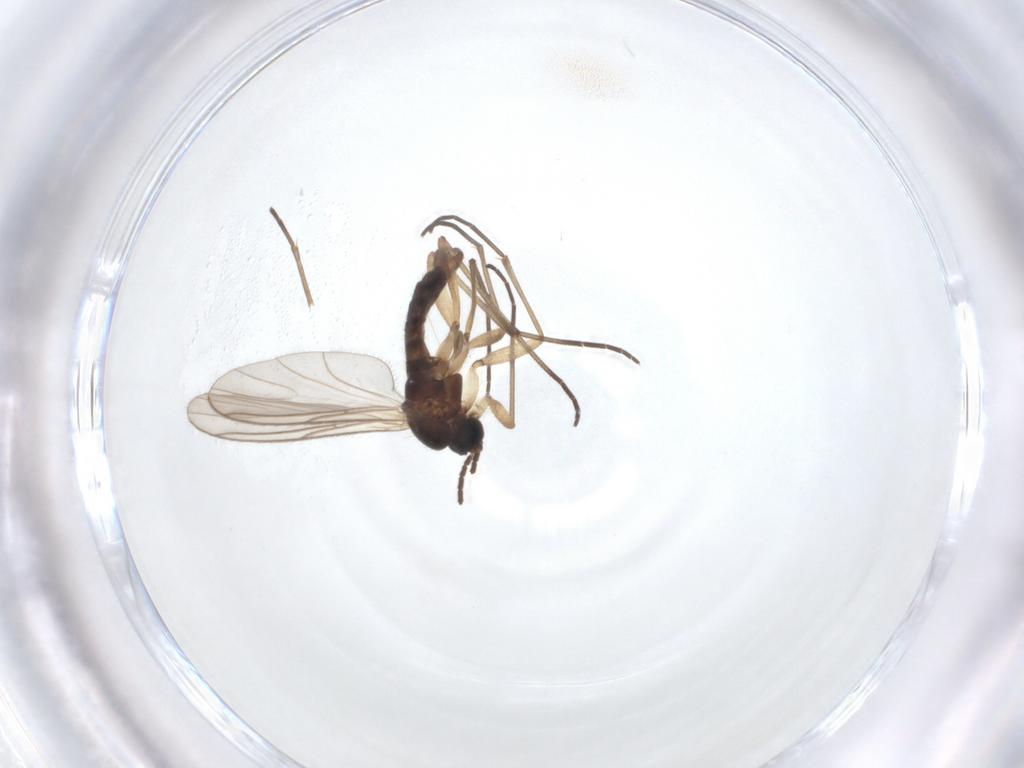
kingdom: Animalia
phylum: Arthropoda
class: Insecta
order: Diptera
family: Sciaridae
